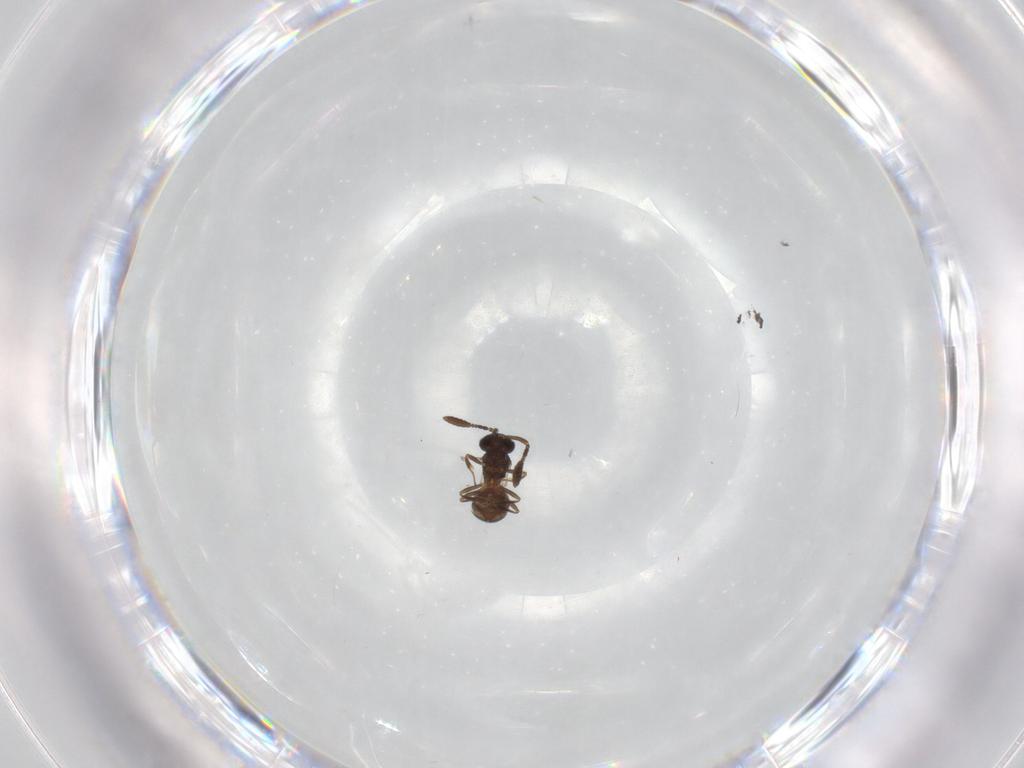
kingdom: Animalia
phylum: Arthropoda
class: Insecta
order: Hymenoptera
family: Scelionidae
